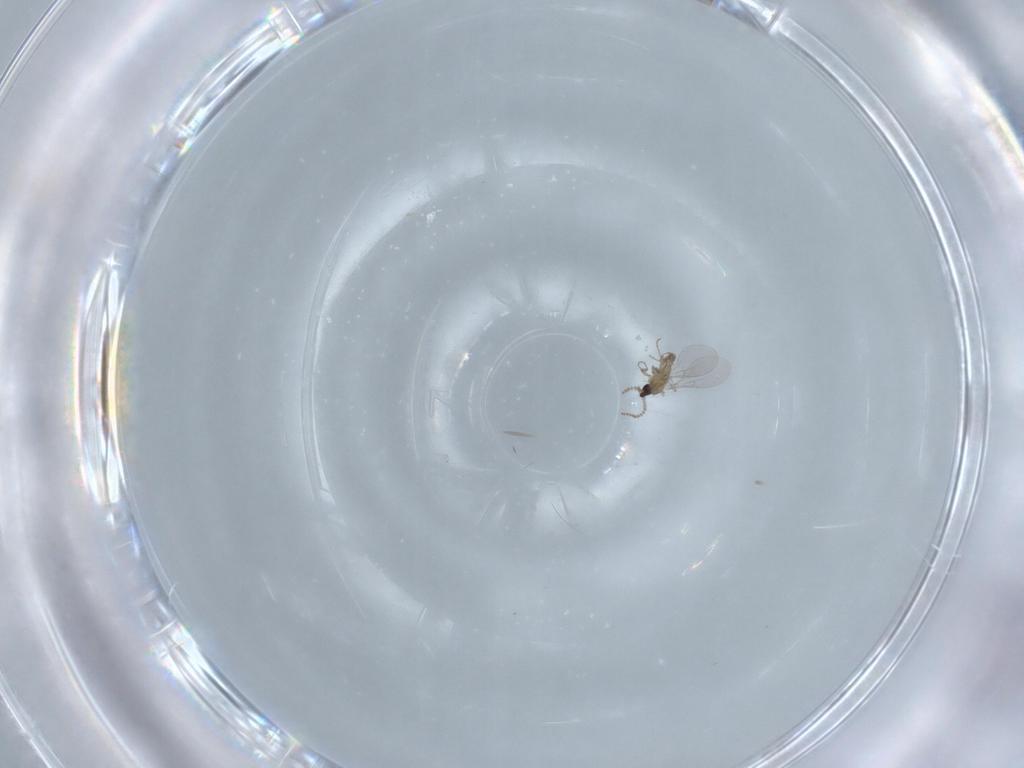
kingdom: Animalia
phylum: Arthropoda
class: Insecta
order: Diptera
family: Cecidomyiidae
